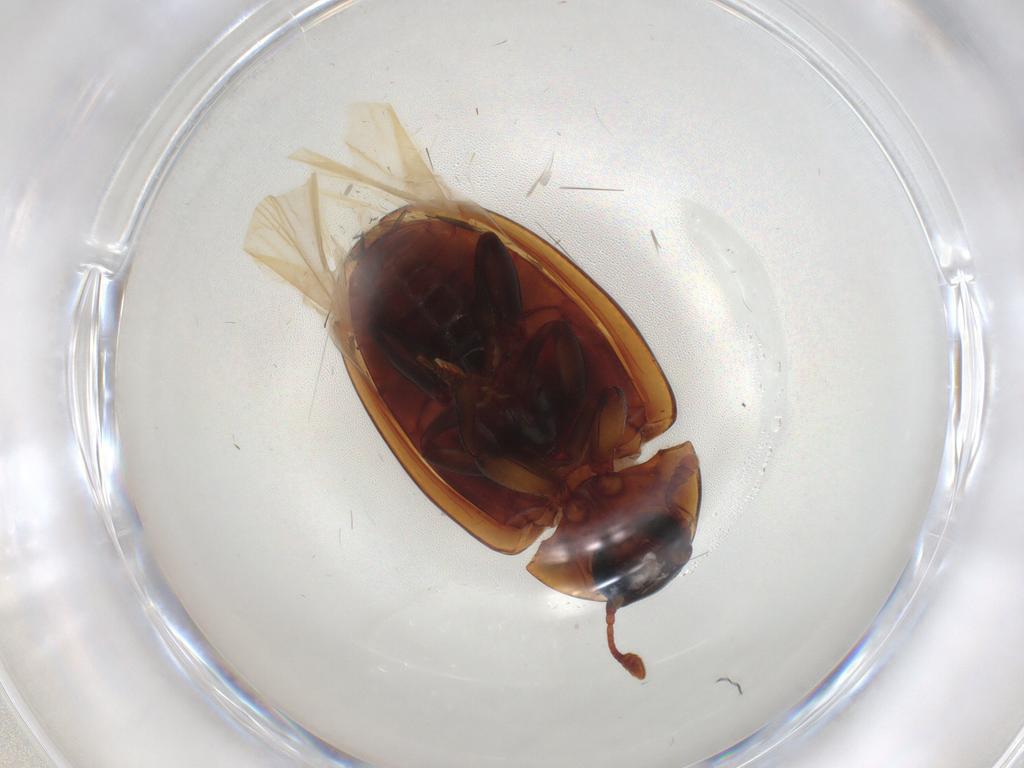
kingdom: Animalia
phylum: Arthropoda
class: Insecta
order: Coleoptera
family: Zopheridae
